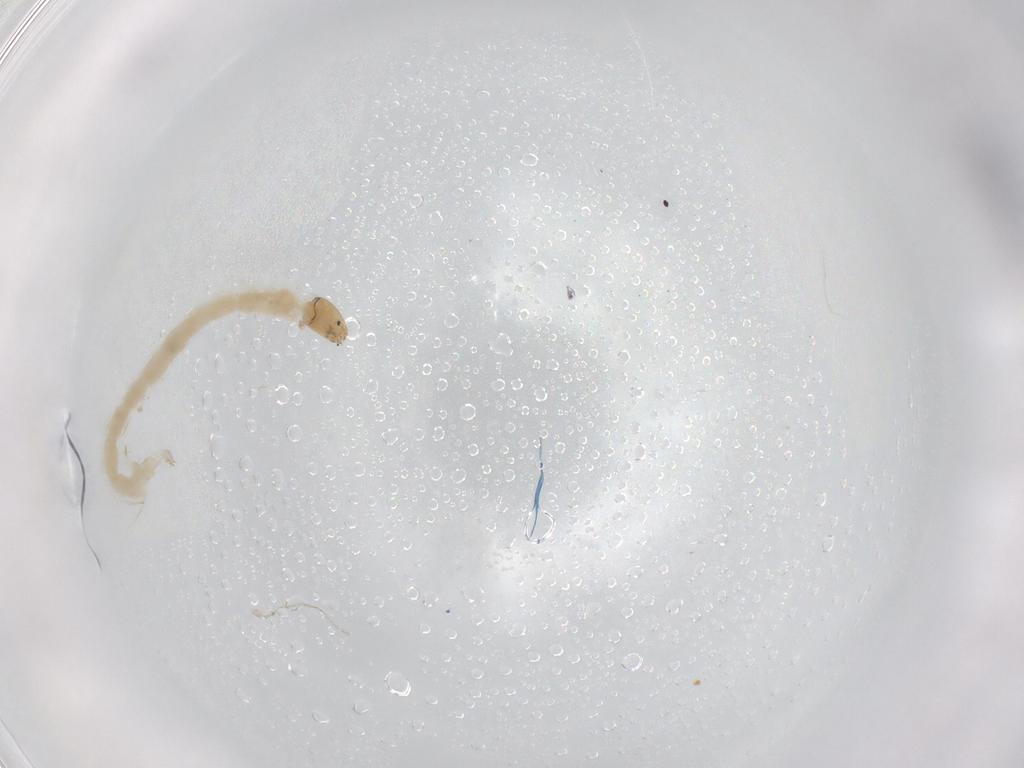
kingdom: Animalia
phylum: Arthropoda
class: Insecta
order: Diptera
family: Chironomidae
